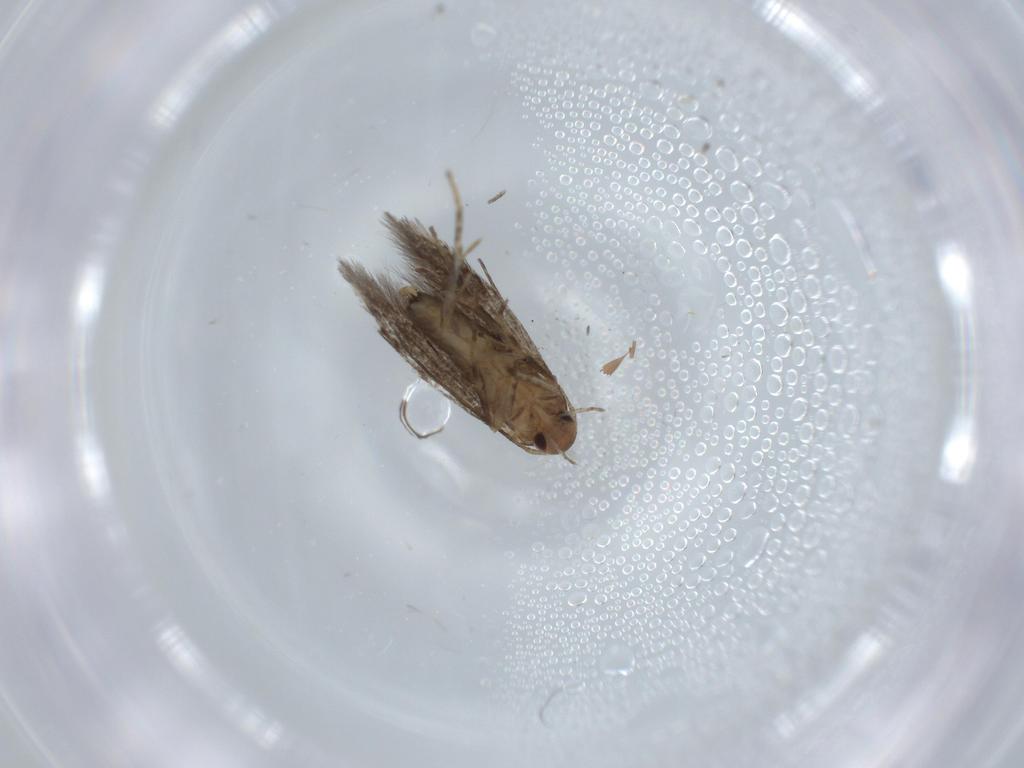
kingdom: Animalia
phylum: Arthropoda
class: Insecta
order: Lepidoptera
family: Cosmopterigidae
